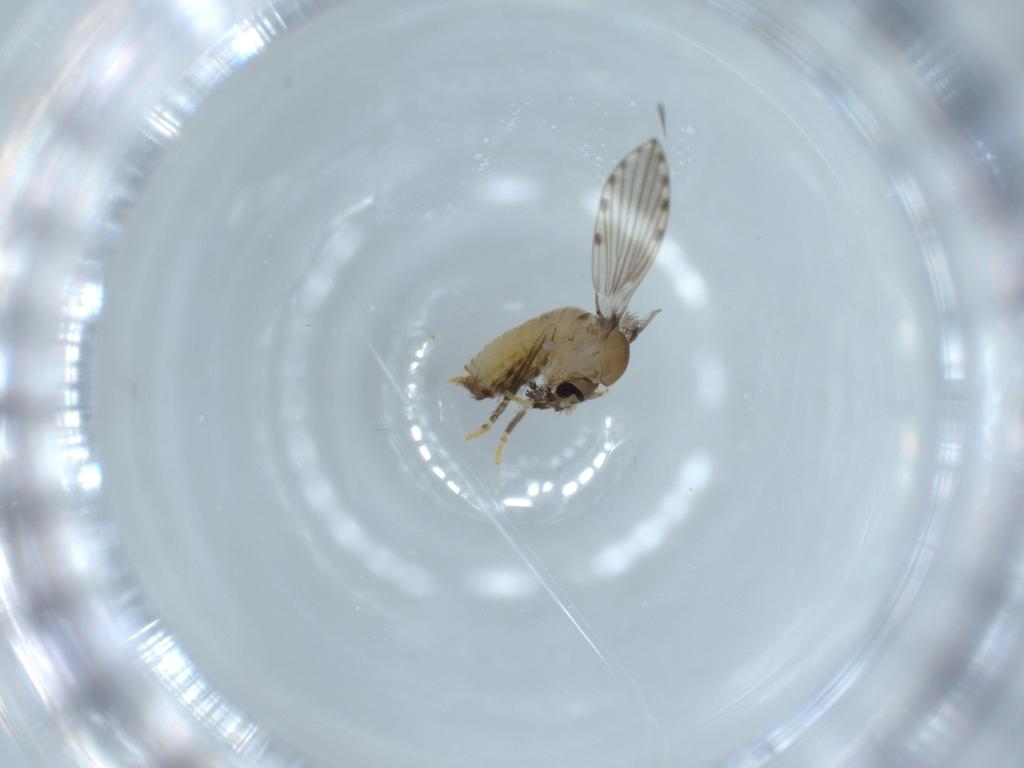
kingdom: Animalia
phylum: Arthropoda
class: Insecta
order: Diptera
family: Psychodidae
